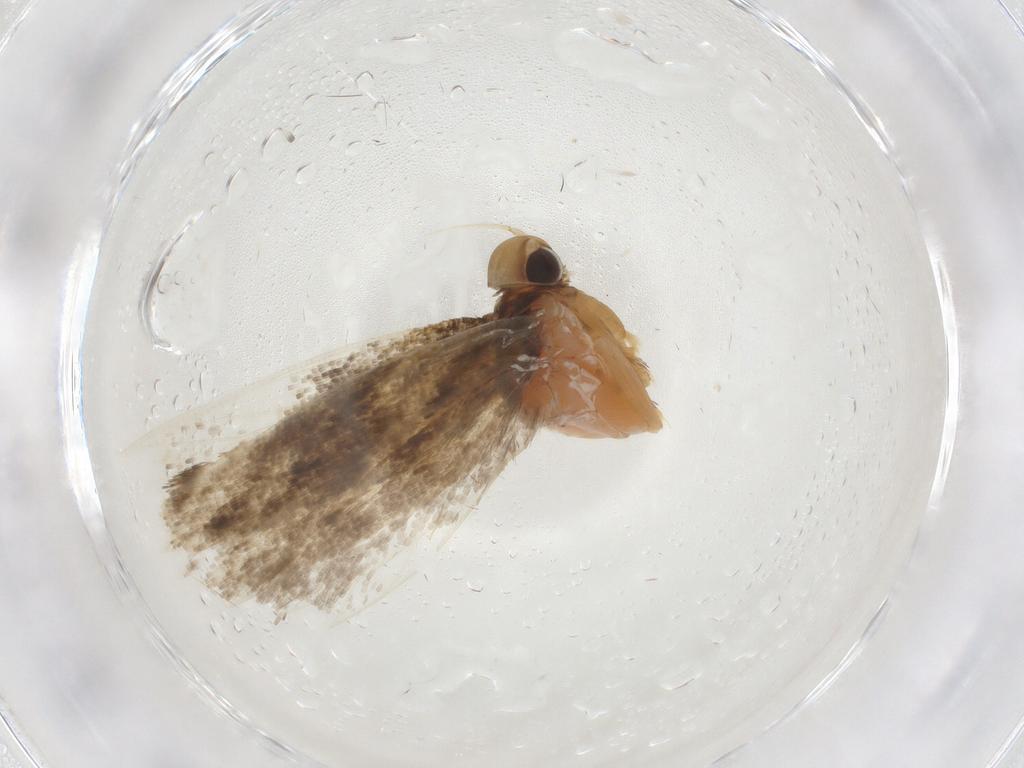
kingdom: Animalia
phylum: Arthropoda
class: Insecta
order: Lepidoptera
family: Gelechiidae
